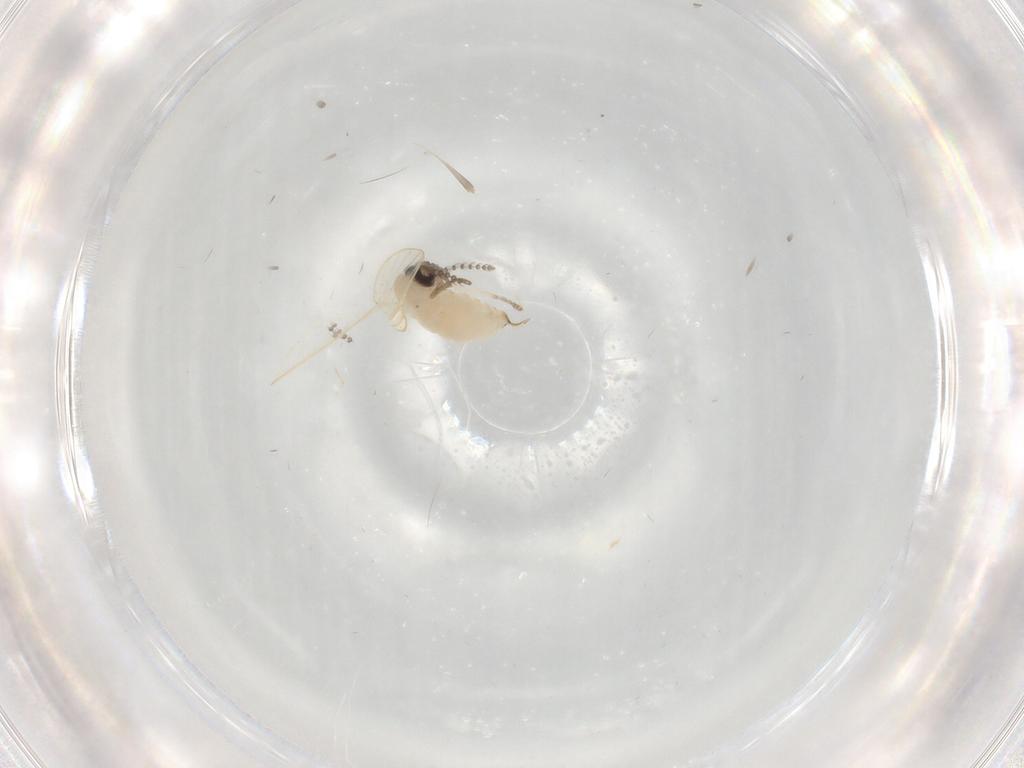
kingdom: Animalia
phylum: Arthropoda
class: Insecta
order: Diptera
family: Psychodidae
